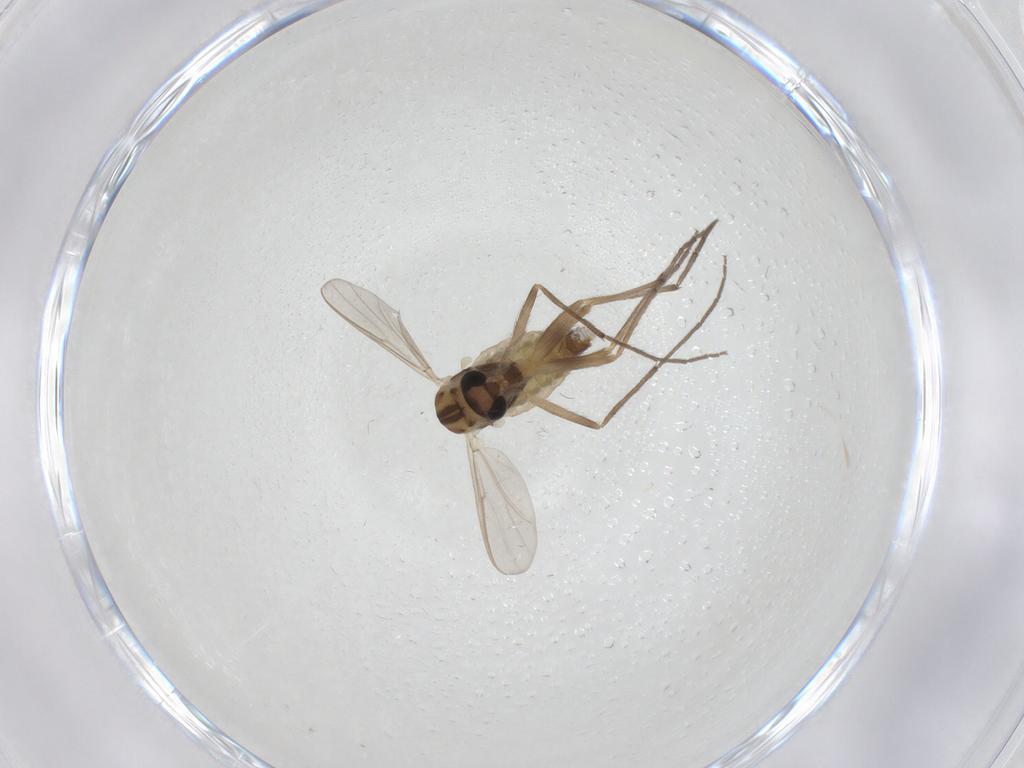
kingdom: Animalia
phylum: Arthropoda
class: Insecta
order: Diptera
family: Chironomidae
